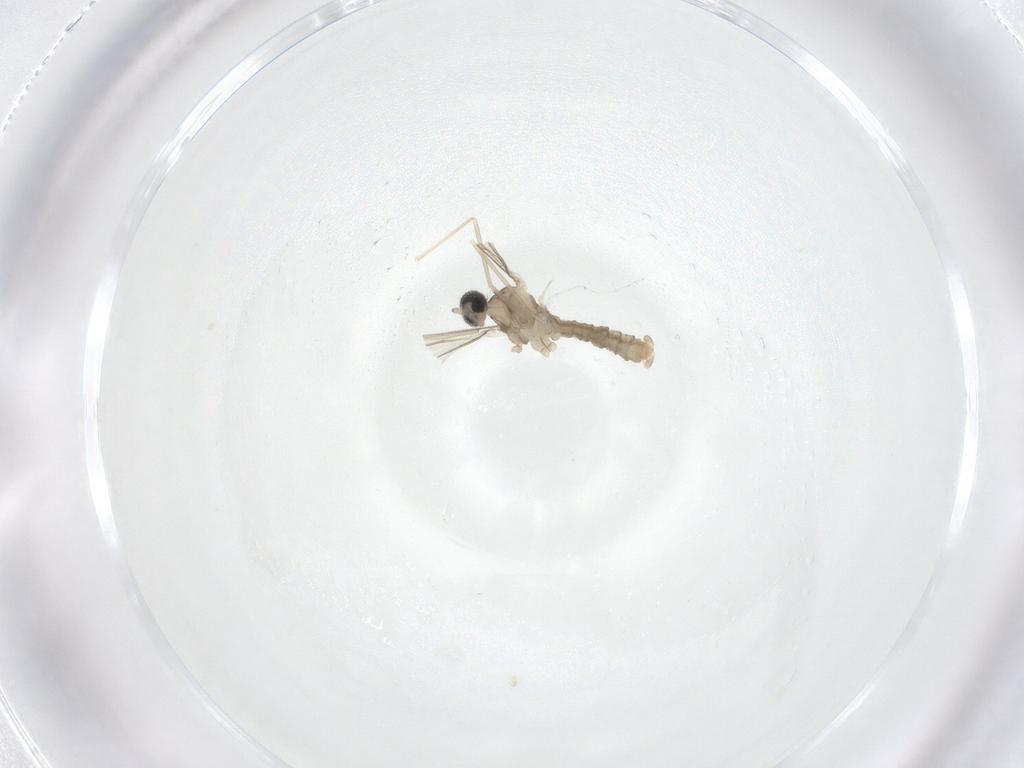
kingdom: Animalia
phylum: Arthropoda
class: Insecta
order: Diptera
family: Cecidomyiidae
